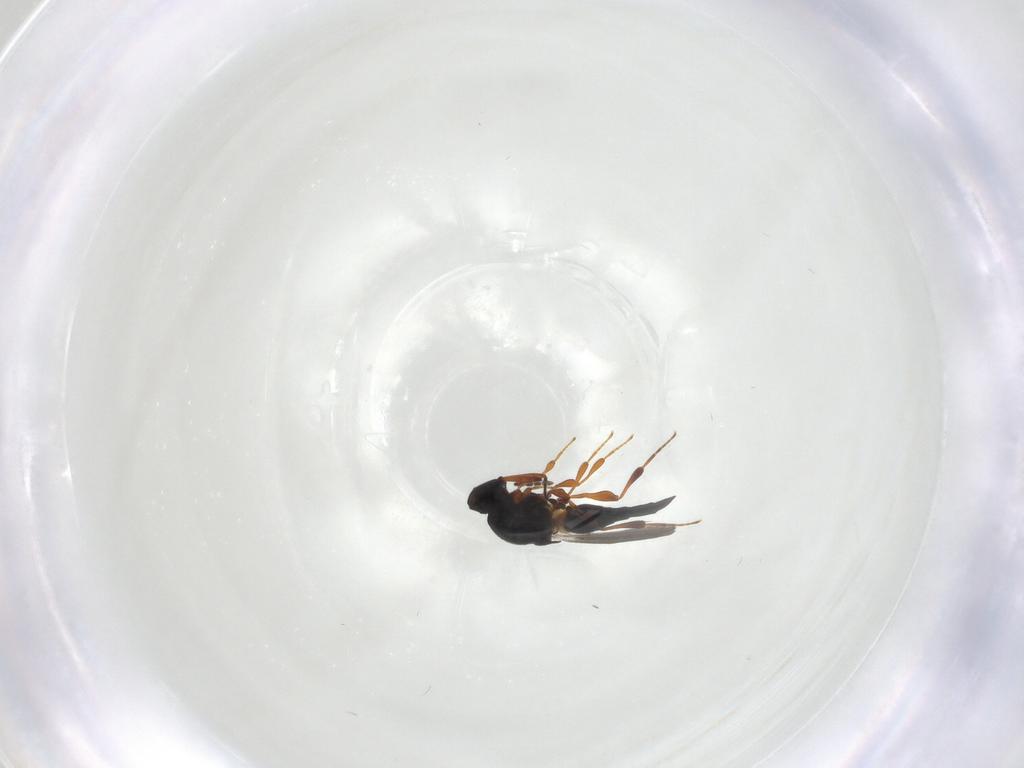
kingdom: Animalia
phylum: Arthropoda
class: Insecta
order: Hymenoptera
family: Platygastridae
